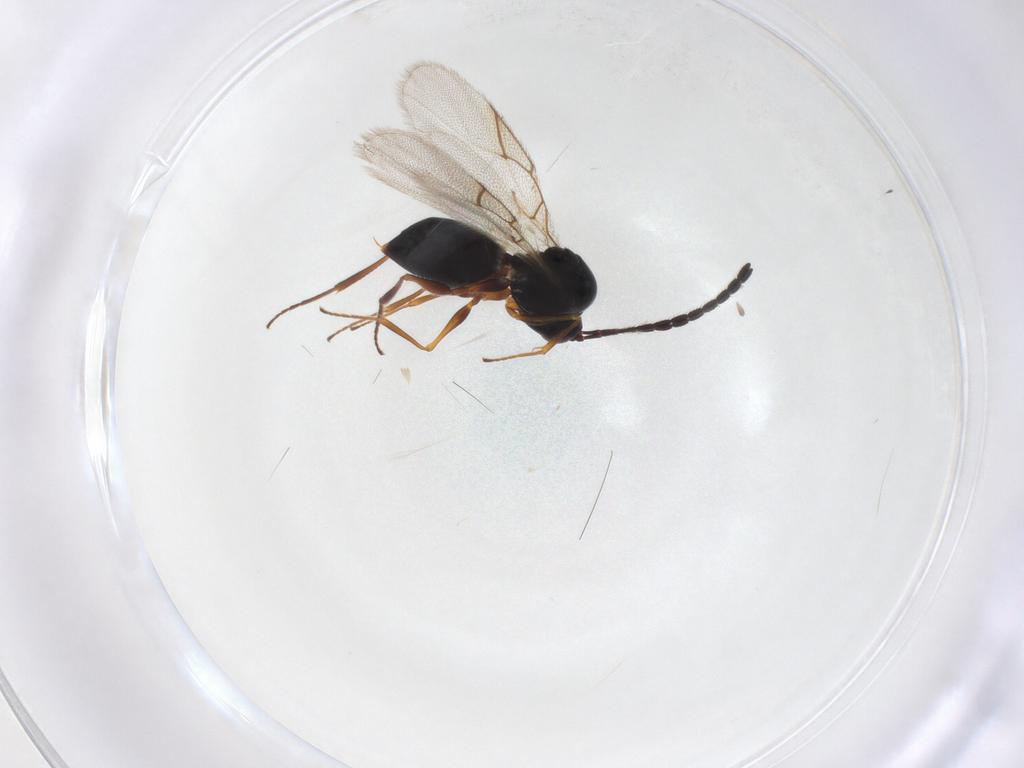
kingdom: Animalia
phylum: Arthropoda
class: Insecta
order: Hymenoptera
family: Figitidae
